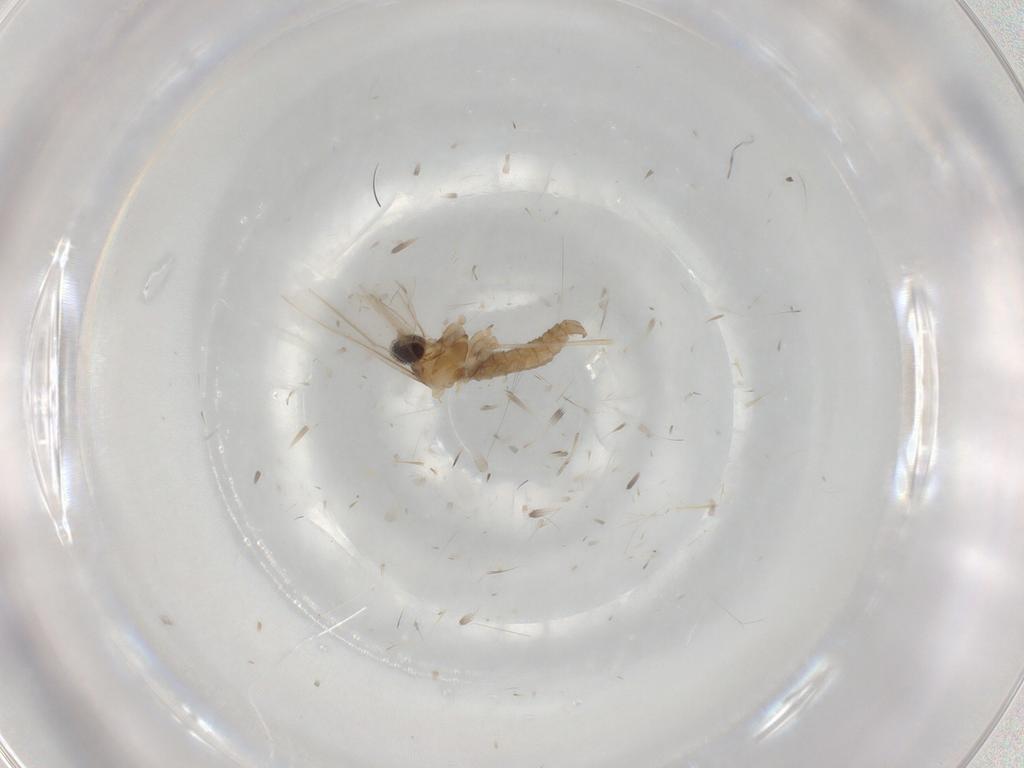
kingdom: Animalia
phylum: Arthropoda
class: Insecta
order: Diptera
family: Cecidomyiidae
